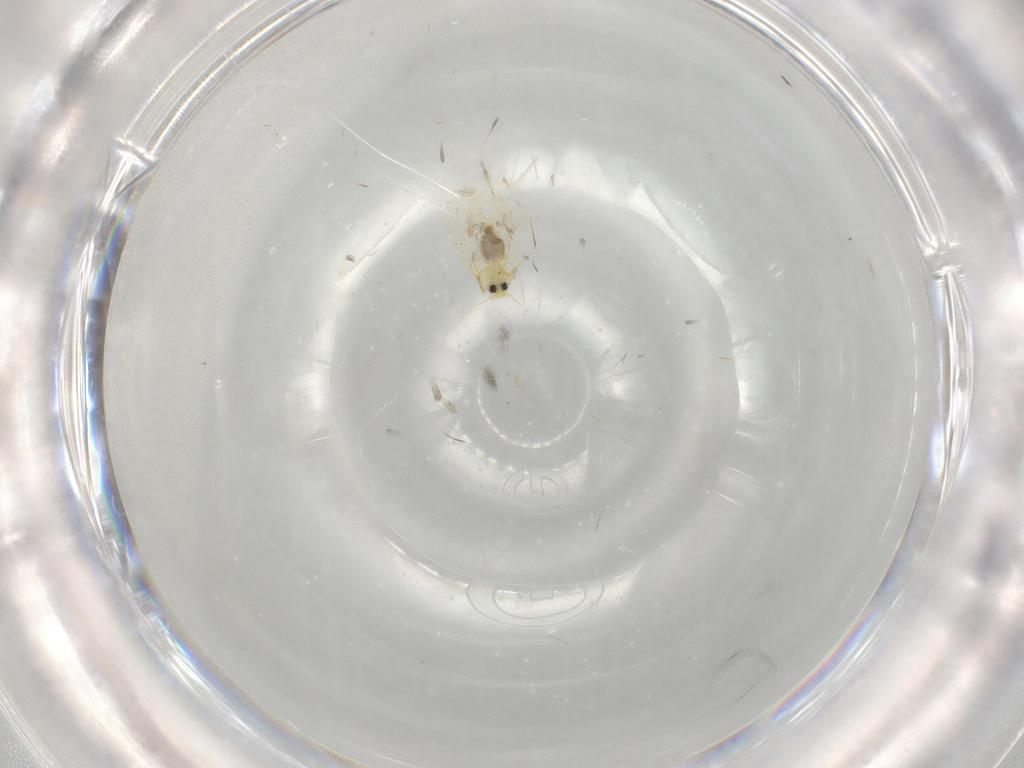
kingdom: Animalia
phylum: Arthropoda
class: Insecta
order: Hemiptera
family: Aleyrodidae
